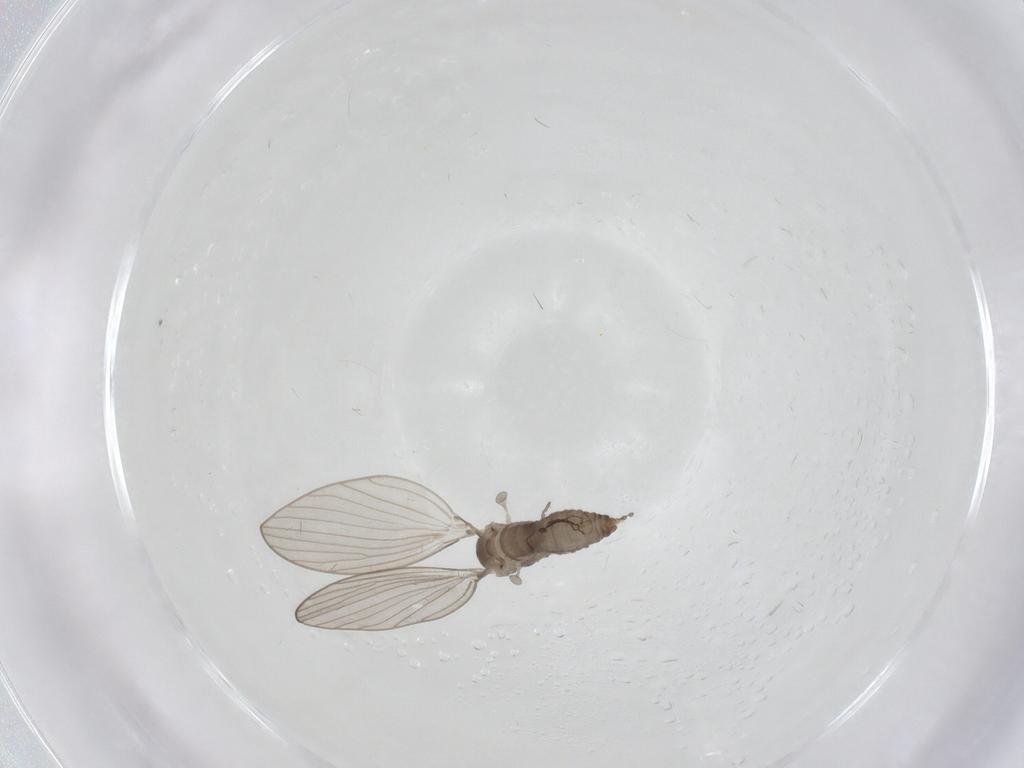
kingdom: Animalia
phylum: Arthropoda
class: Insecta
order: Diptera
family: Psychodidae
